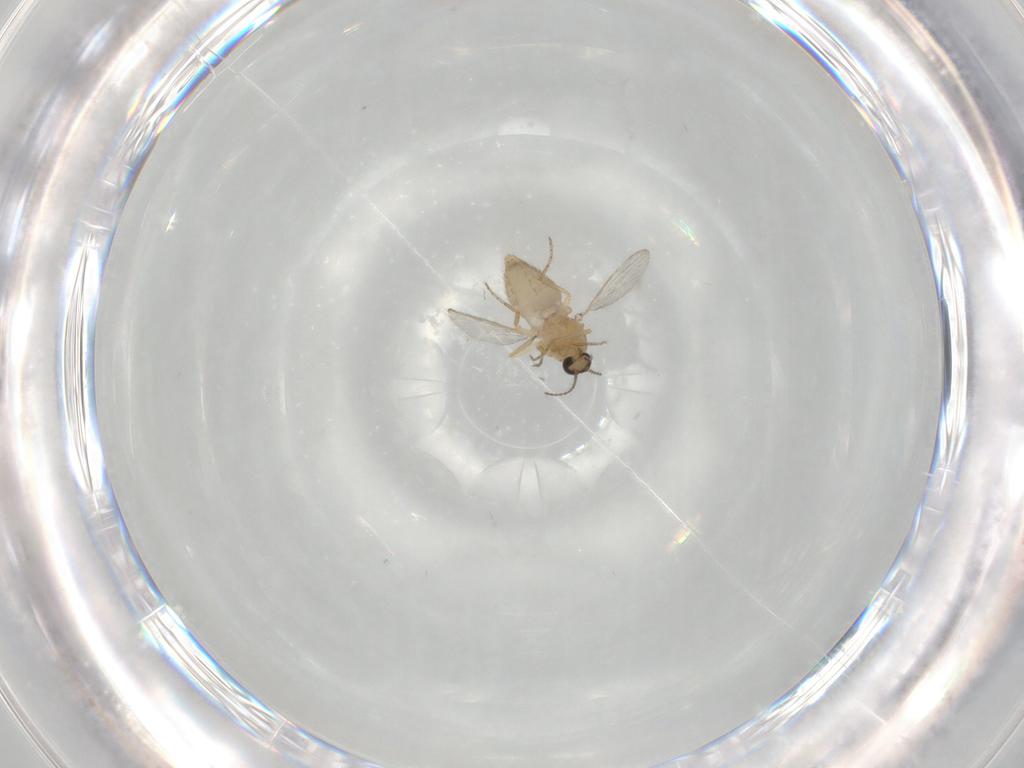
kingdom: Animalia
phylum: Arthropoda
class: Insecta
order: Diptera
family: Ceratopogonidae
